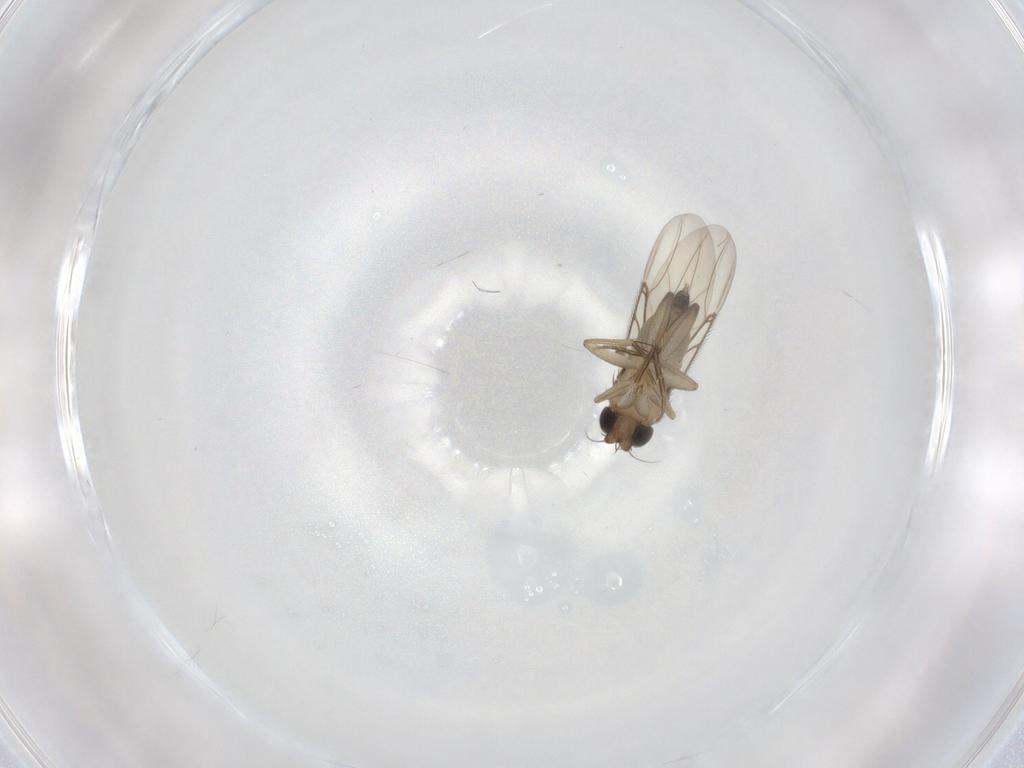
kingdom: Animalia
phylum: Arthropoda
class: Insecta
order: Diptera
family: Phoridae
